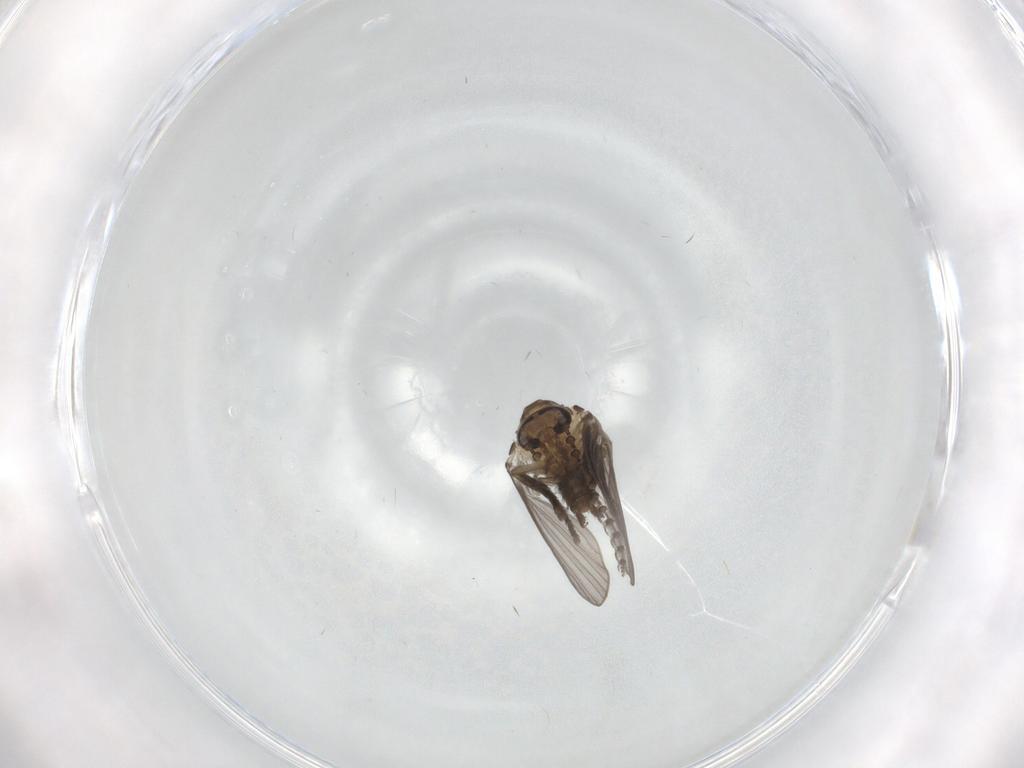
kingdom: Animalia
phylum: Arthropoda
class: Insecta
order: Diptera
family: Psychodidae
